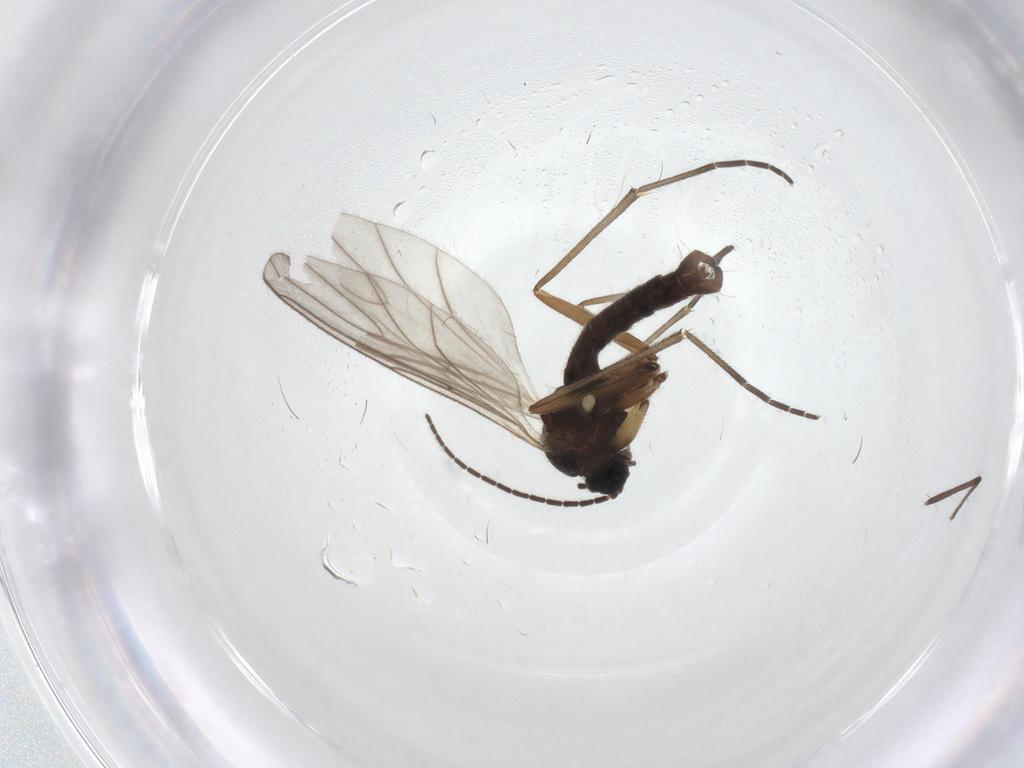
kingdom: Animalia
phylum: Arthropoda
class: Insecta
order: Diptera
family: Sciaridae
